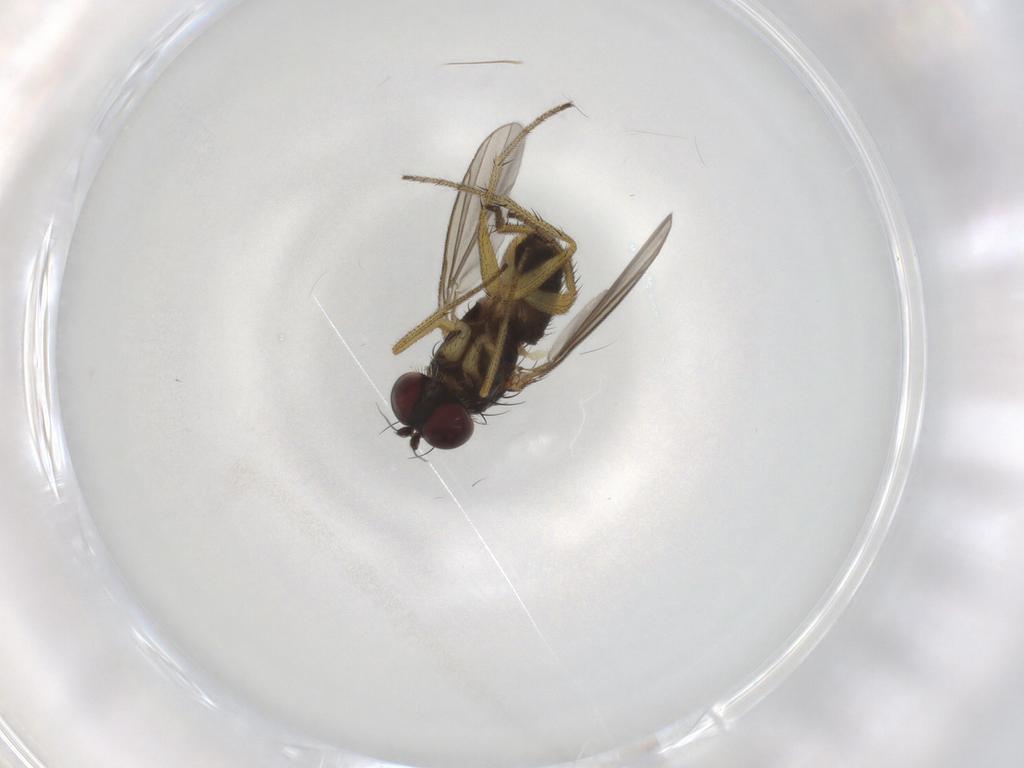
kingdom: Animalia
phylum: Arthropoda
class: Insecta
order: Diptera
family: Chironomidae
